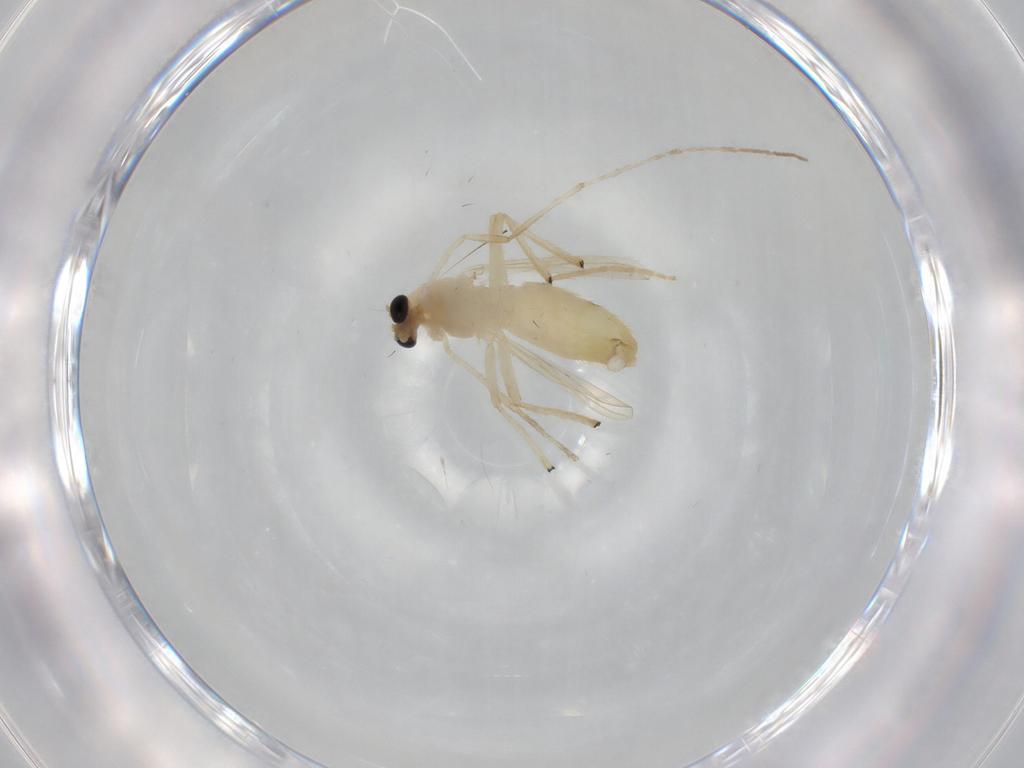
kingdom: Animalia
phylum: Arthropoda
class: Insecta
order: Diptera
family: Chironomidae
